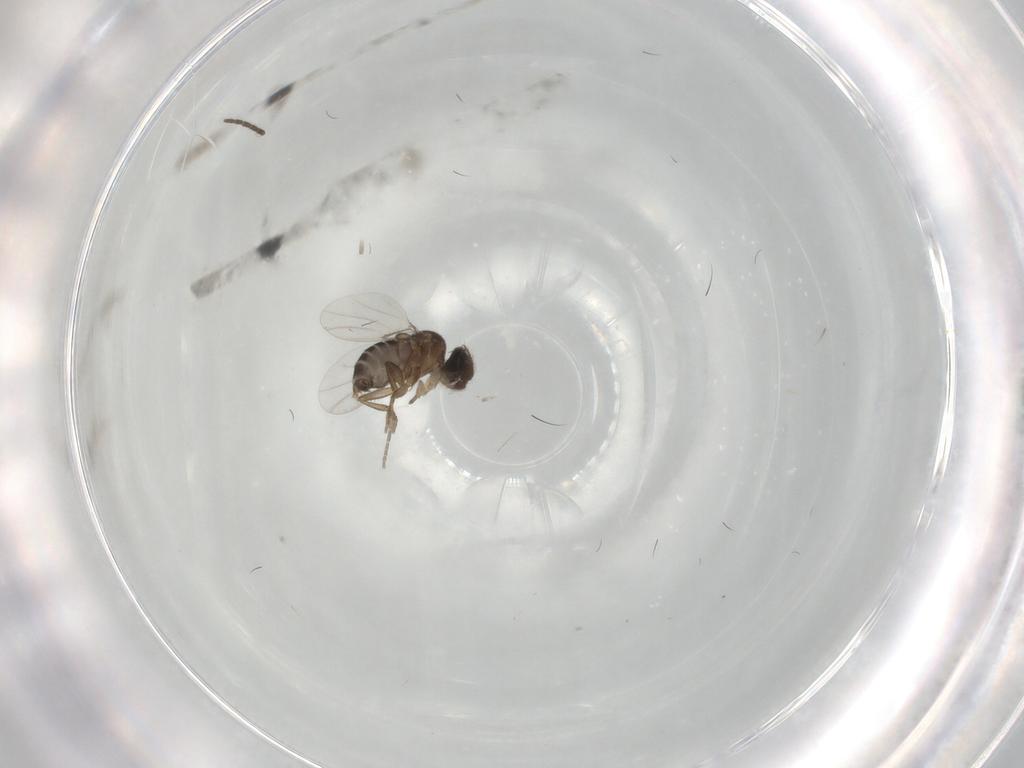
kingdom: Animalia
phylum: Arthropoda
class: Insecta
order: Diptera
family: Sciaridae
